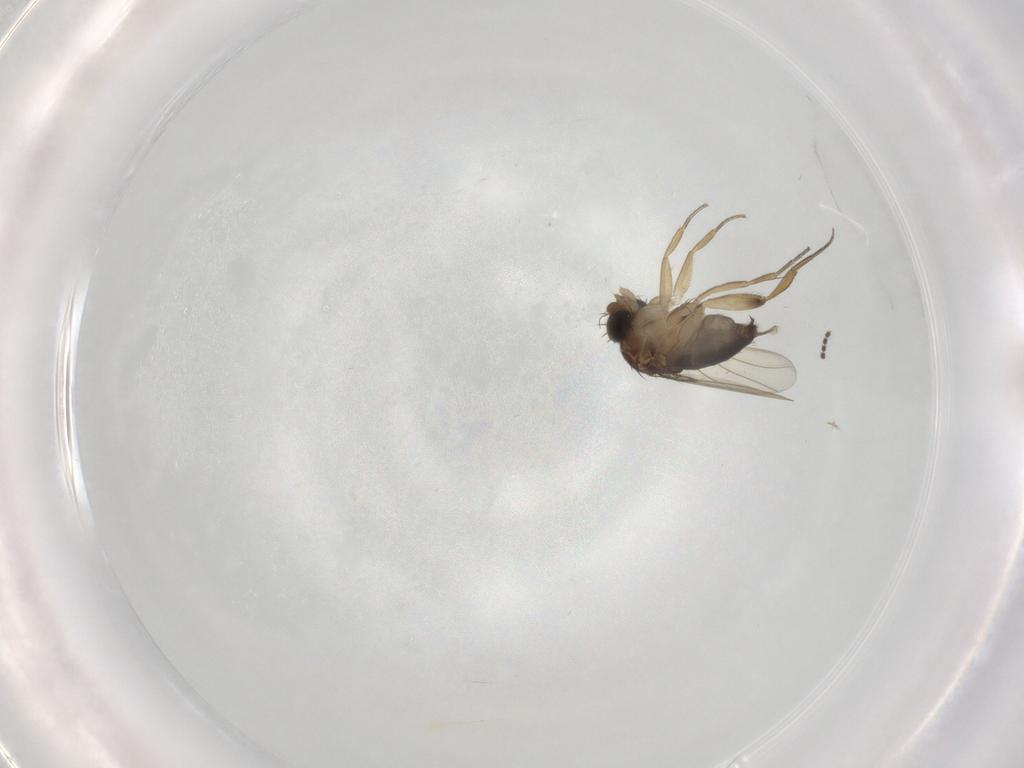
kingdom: Animalia
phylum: Arthropoda
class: Insecta
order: Diptera
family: Phoridae
